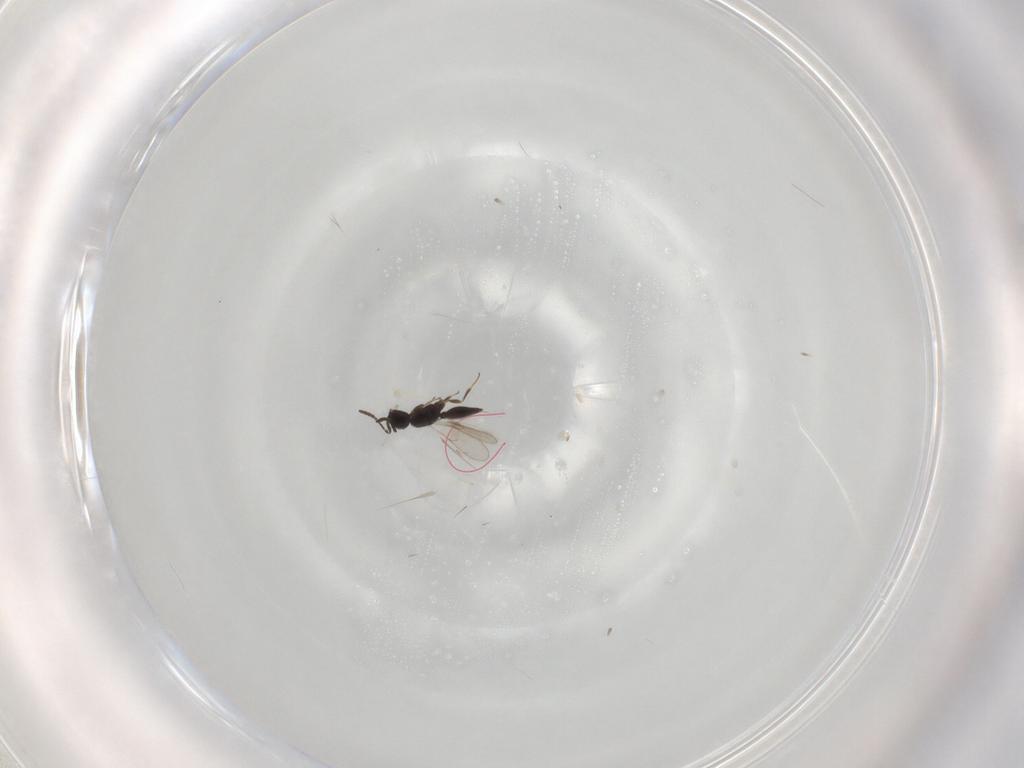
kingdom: Animalia
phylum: Arthropoda
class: Insecta
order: Hymenoptera
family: Scelionidae
